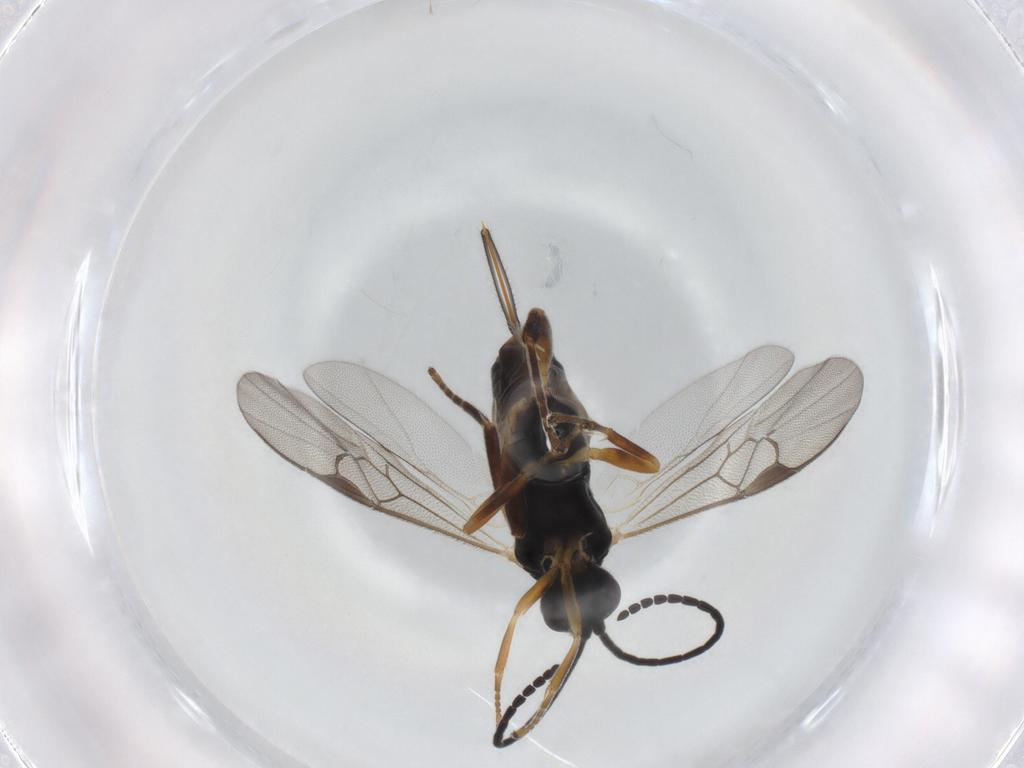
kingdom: Animalia
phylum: Arthropoda
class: Insecta
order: Hymenoptera
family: Braconidae
